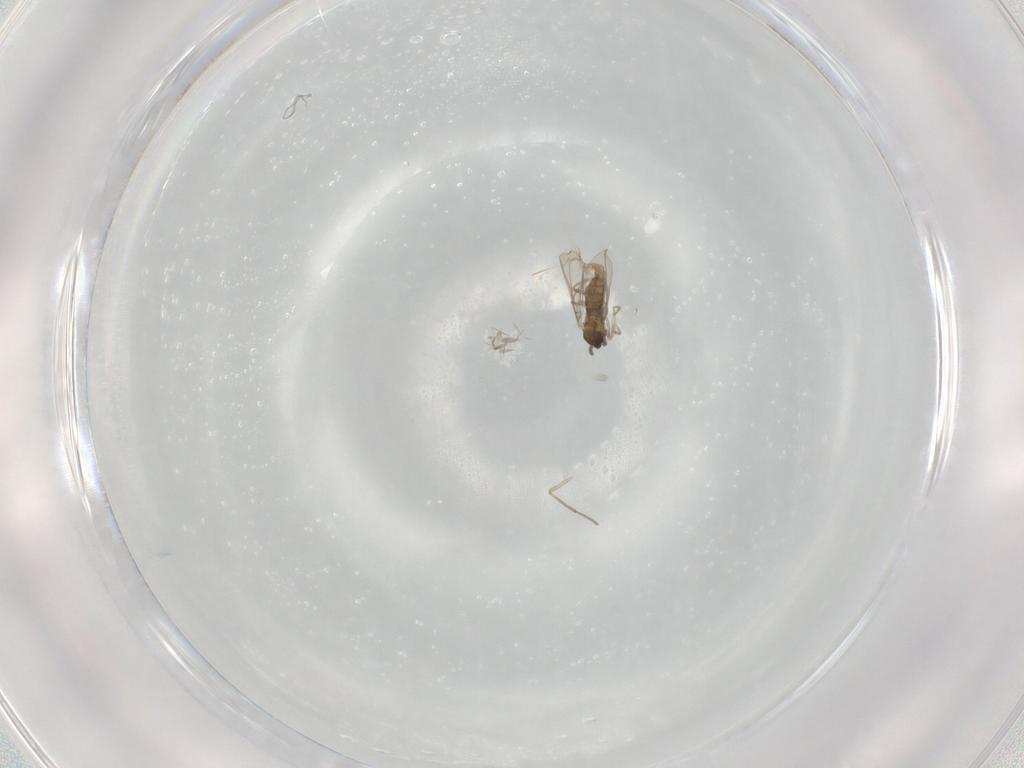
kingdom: Animalia
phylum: Arthropoda
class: Insecta
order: Diptera
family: Cecidomyiidae
